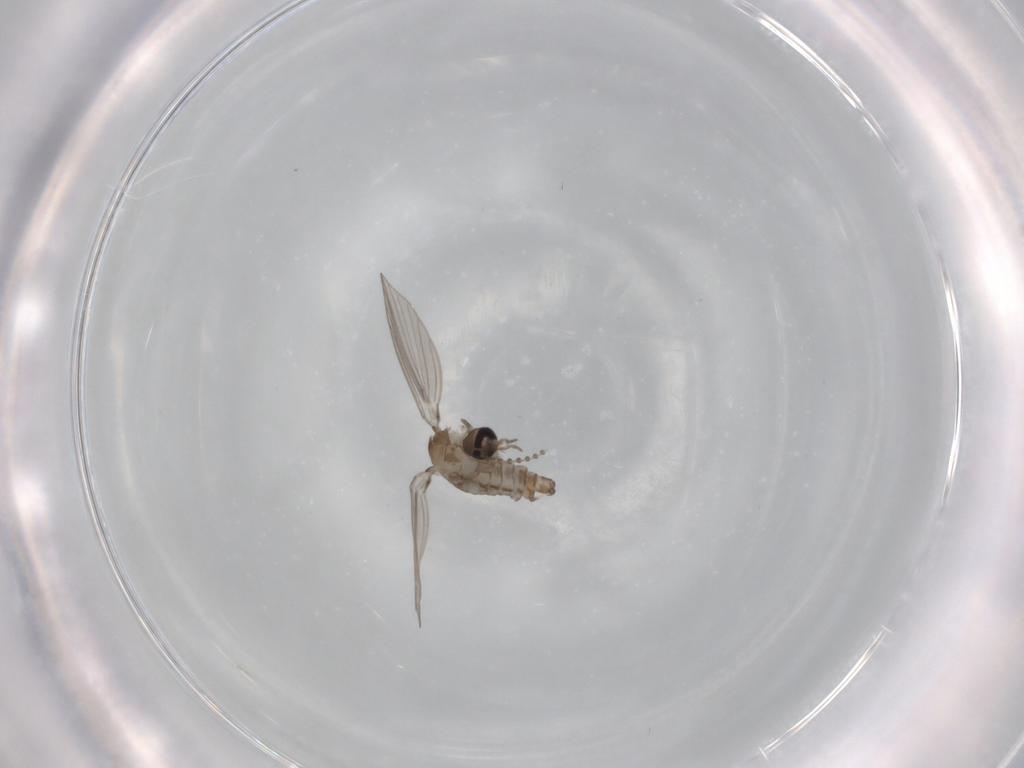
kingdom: Animalia
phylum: Arthropoda
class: Insecta
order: Diptera
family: Psychodidae
